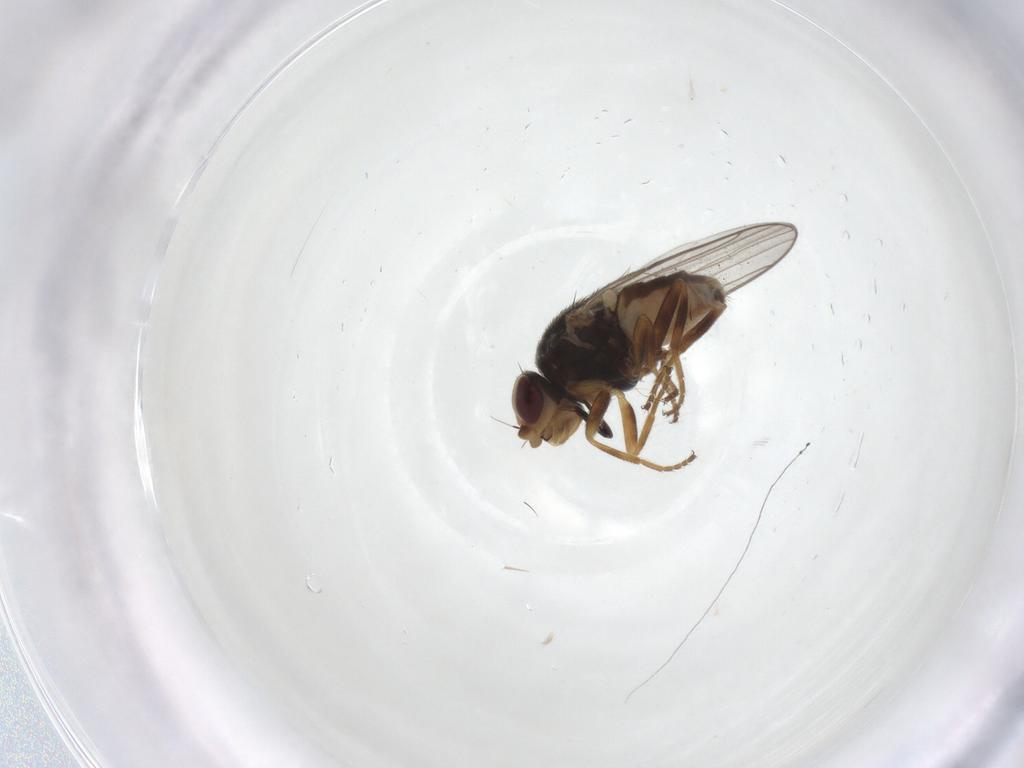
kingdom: Animalia
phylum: Arthropoda
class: Insecta
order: Diptera
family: Chloropidae
